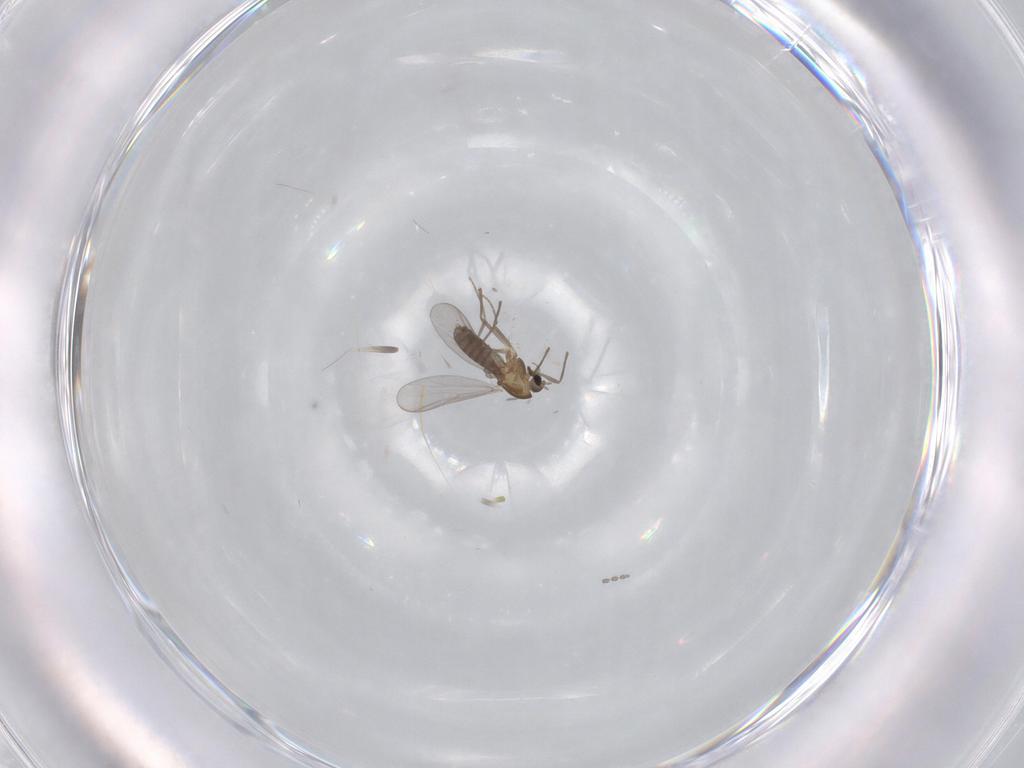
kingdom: Animalia
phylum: Arthropoda
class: Insecta
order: Diptera
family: Chironomidae
